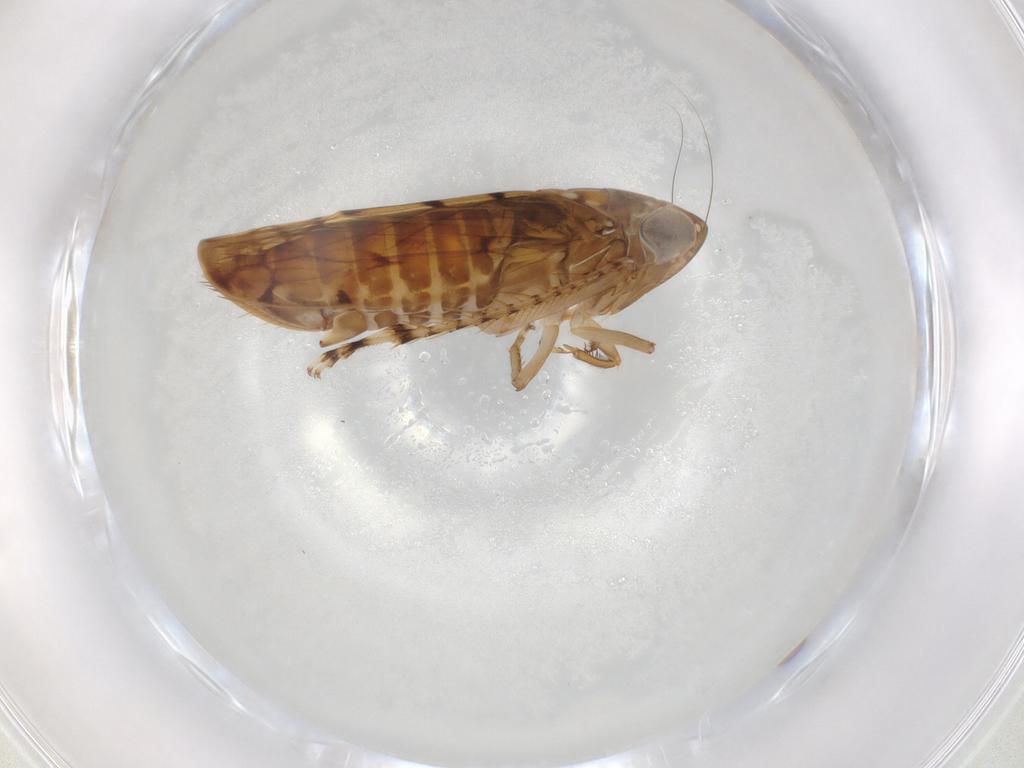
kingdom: Animalia
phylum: Arthropoda
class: Insecta
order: Hemiptera
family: Cicadellidae
